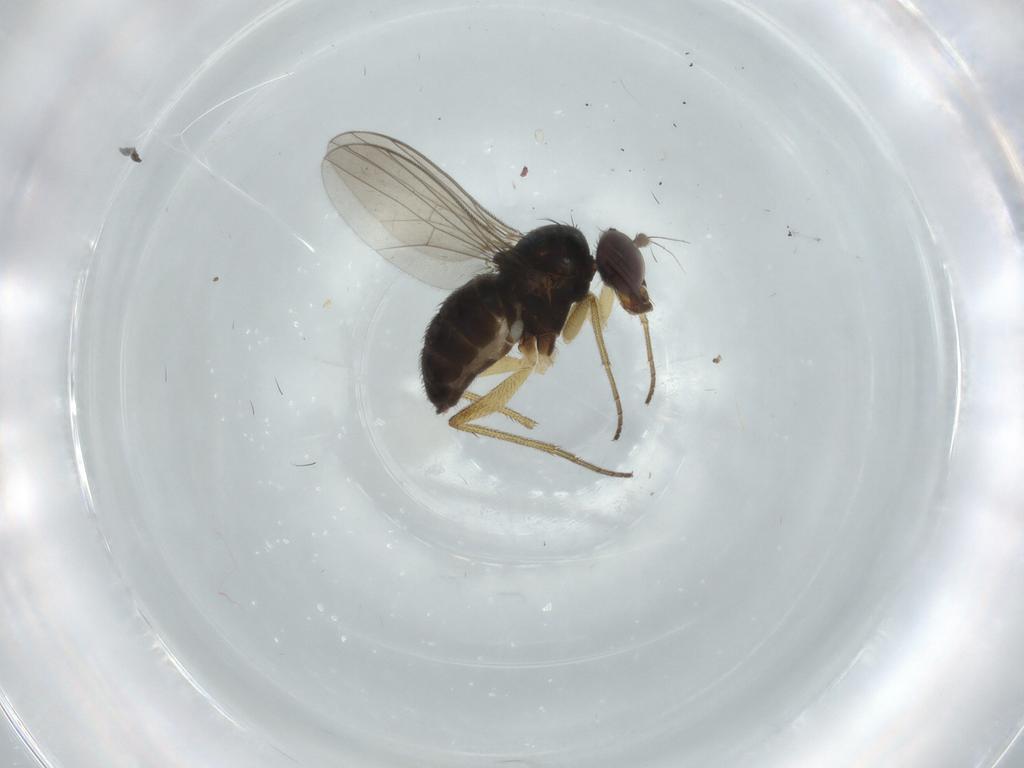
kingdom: Animalia
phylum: Arthropoda
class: Insecta
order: Diptera
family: Dolichopodidae
